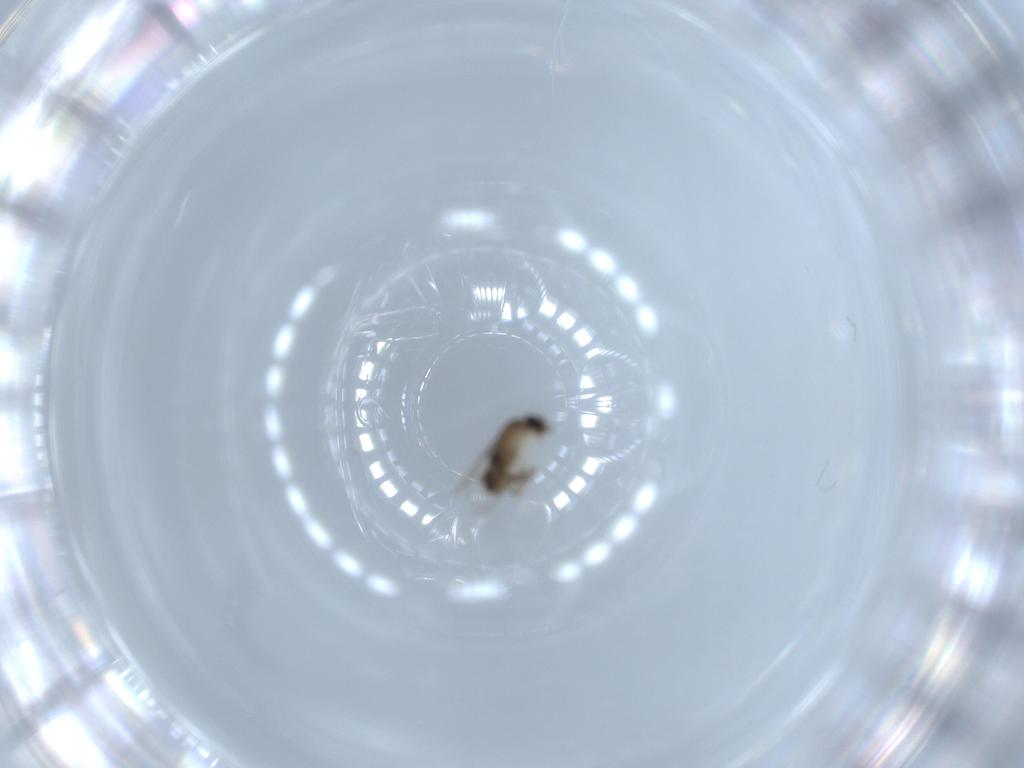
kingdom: Animalia
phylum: Arthropoda
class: Insecta
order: Diptera
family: Phoridae
